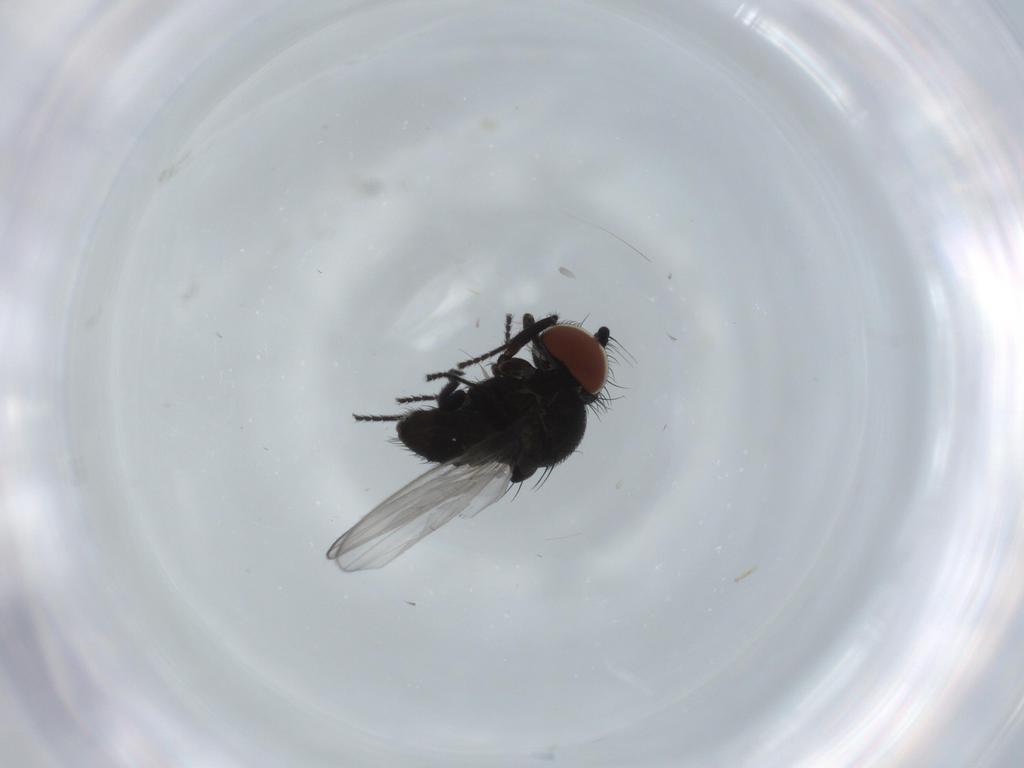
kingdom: Animalia
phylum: Arthropoda
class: Insecta
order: Diptera
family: Milichiidae
